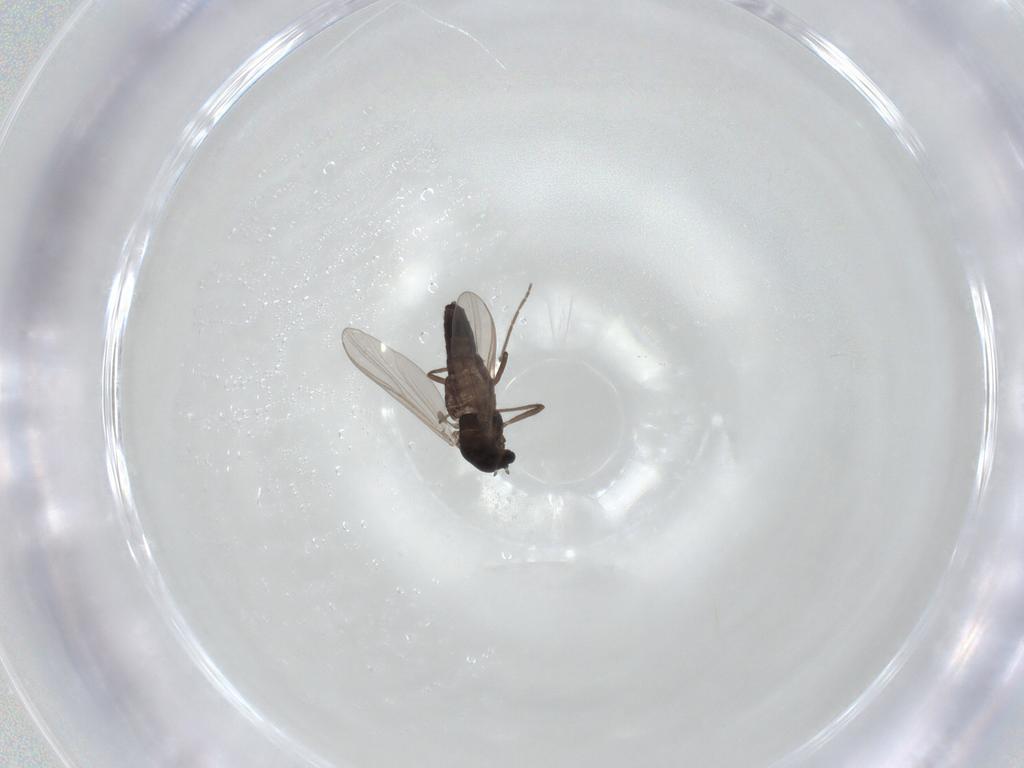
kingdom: Animalia
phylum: Arthropoda
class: Insecta
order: Diptera
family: Chironomidae
